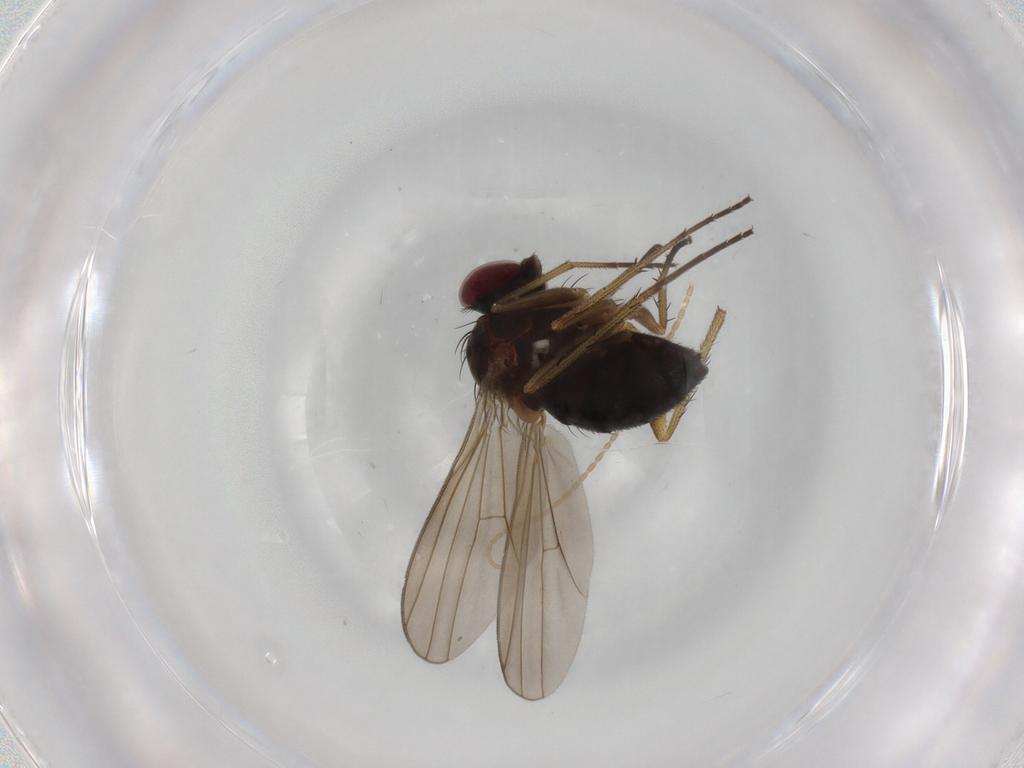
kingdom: Animalia
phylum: Arthropoda
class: Insecta
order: Diptera
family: Dolichopodidae
